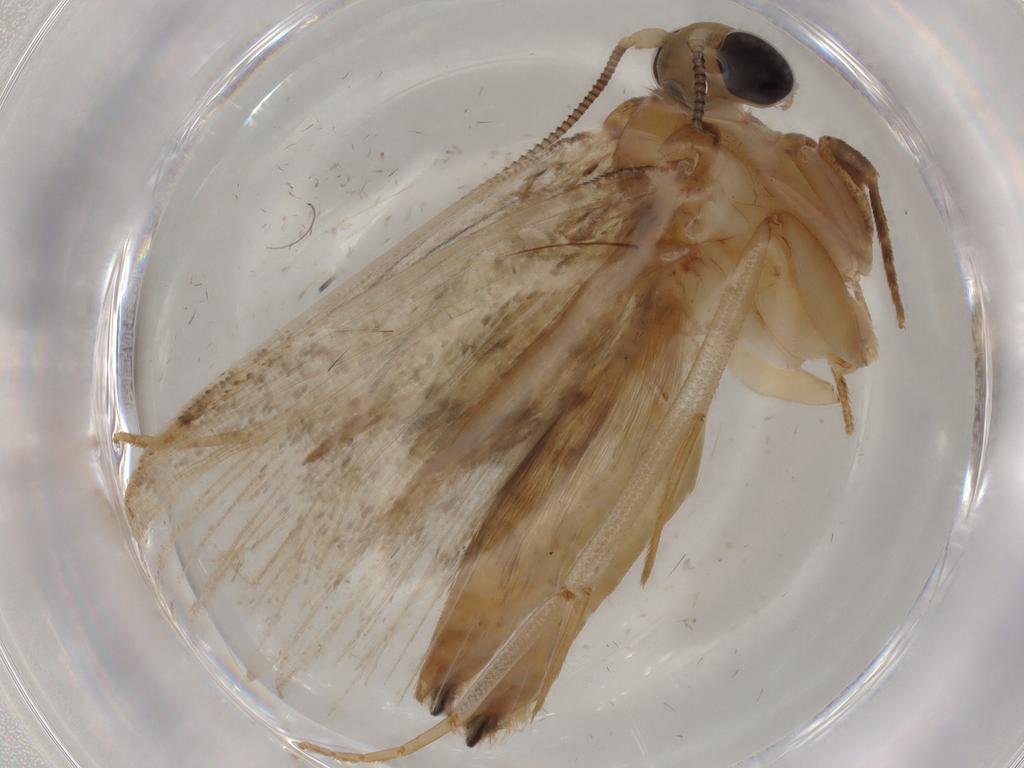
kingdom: Animalia
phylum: Arthropoda
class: Insecta
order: Lepidoptera
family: Tineidae
